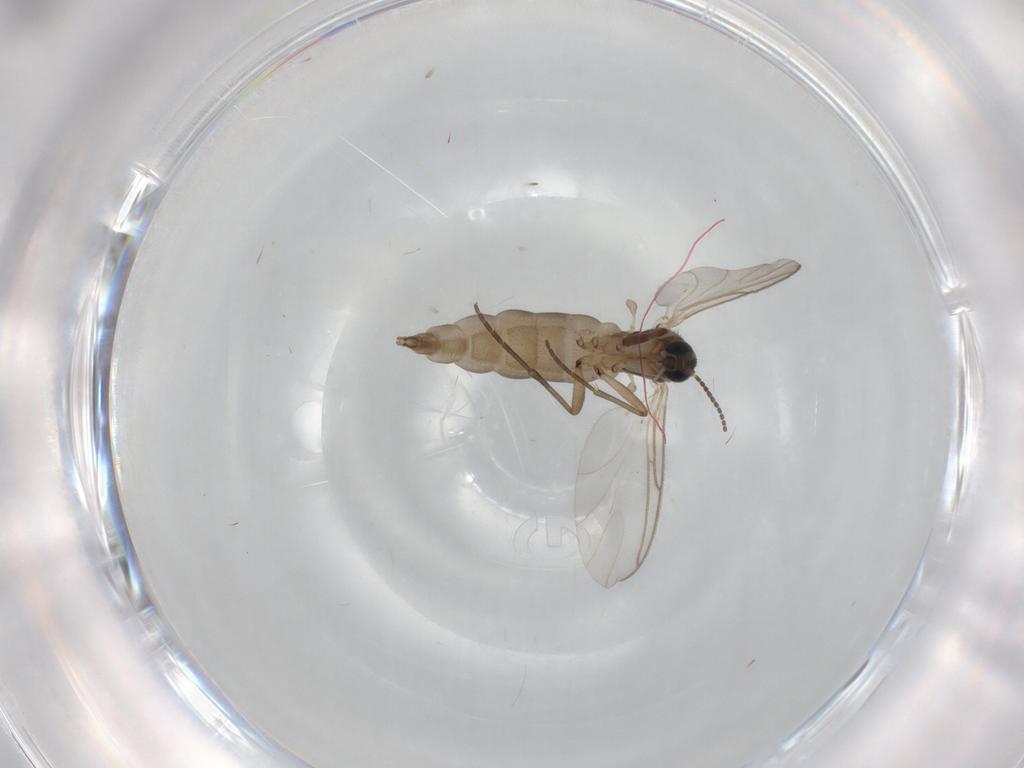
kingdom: Animalia
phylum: Arthropoda
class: Insecta
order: Diptera
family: Sciaridae
